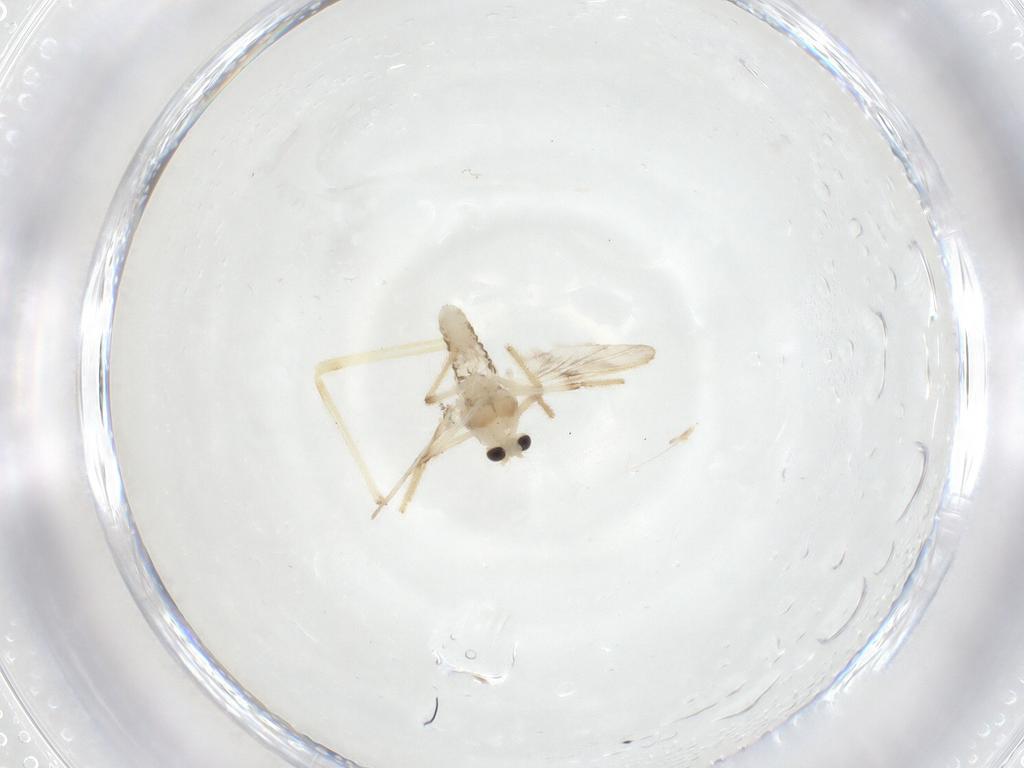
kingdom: Animalia
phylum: Arthropoda
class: Insecta
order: Diptera
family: Chironomidae
